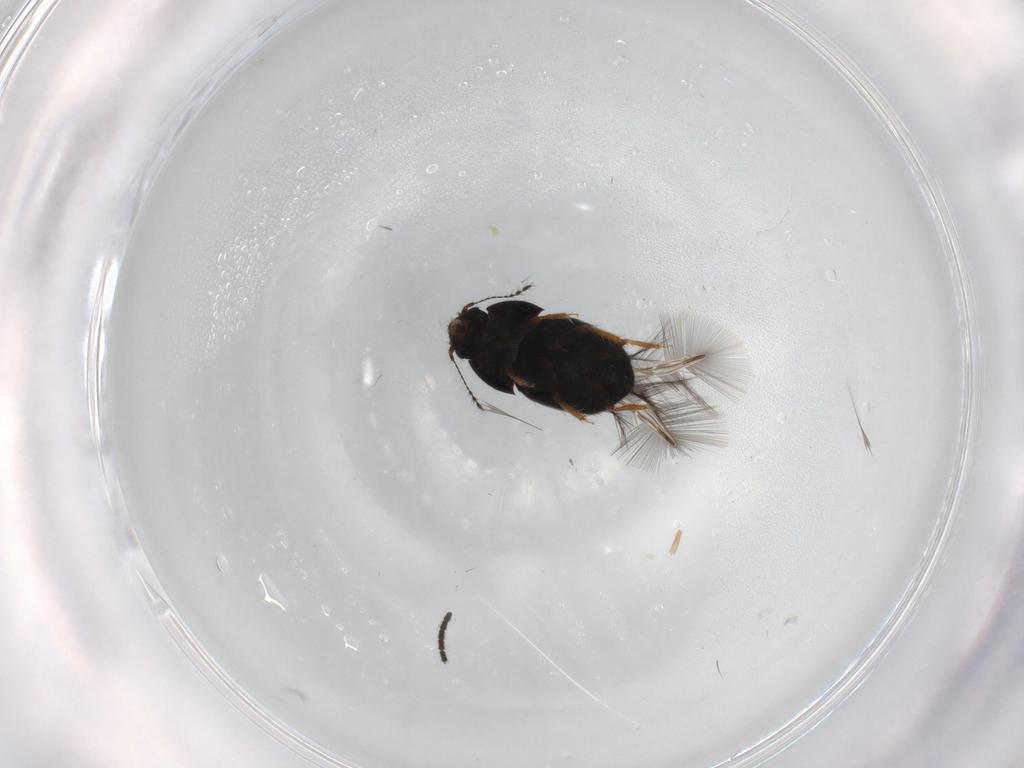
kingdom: Animalia
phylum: Arthropoda
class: Insecta
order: Coleoptera
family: Ptiliidae
